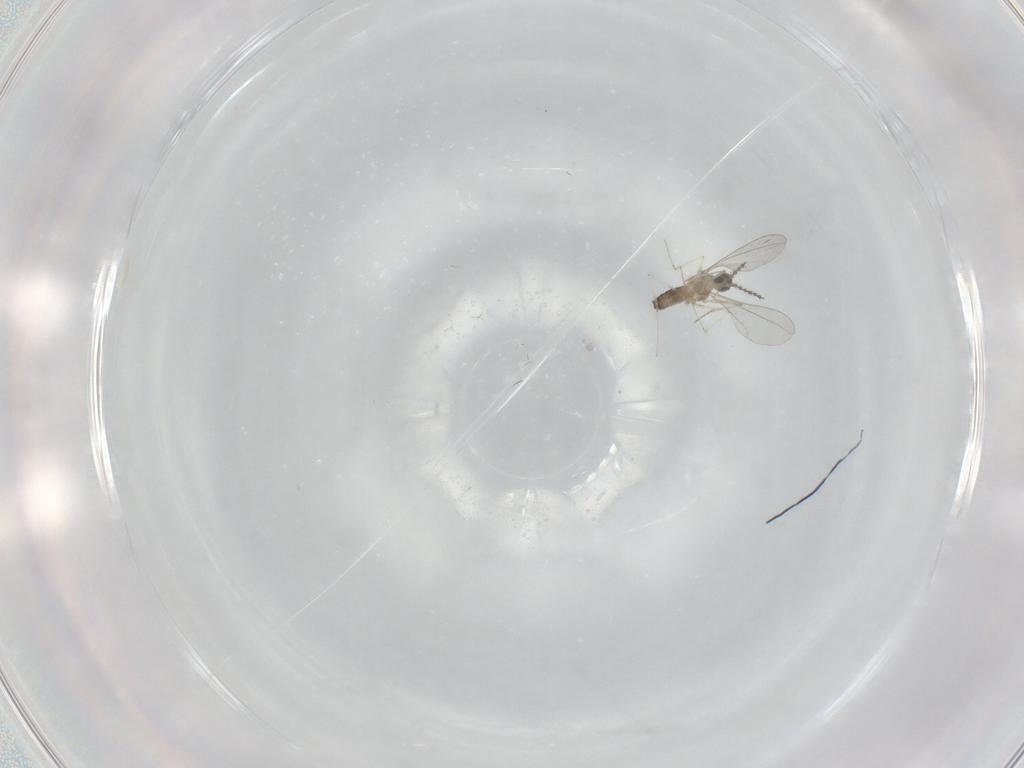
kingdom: Animalia
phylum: Arthropoda
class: Insecta
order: Diptera
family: Cecidomyiidae
